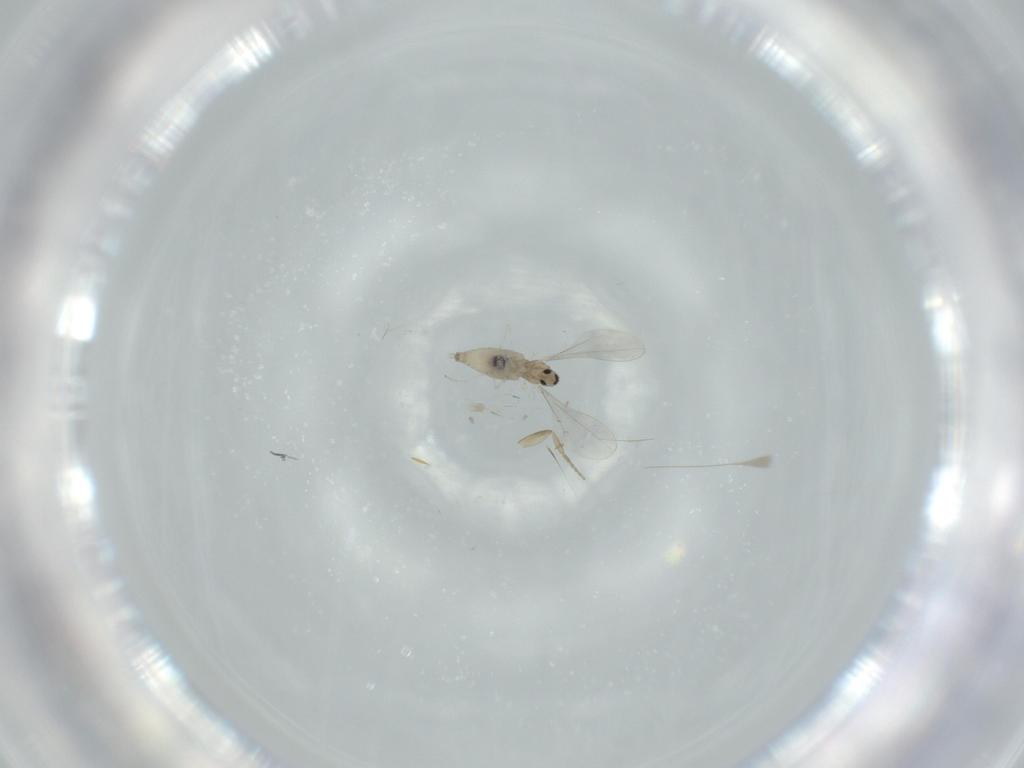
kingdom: Animalia
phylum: Arthropoda
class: Insecta
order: Diptera
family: Cecidomyiidae
